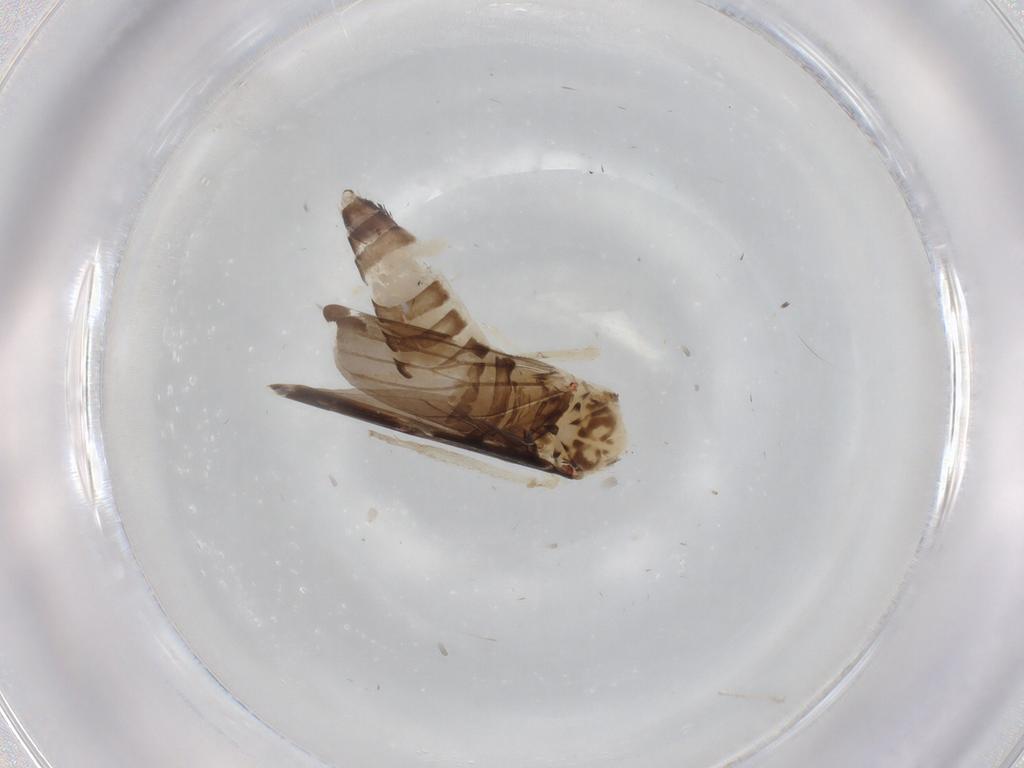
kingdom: Animalia
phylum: Arthropoda
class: Insecta
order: Hemiptera
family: Cicadellidae
